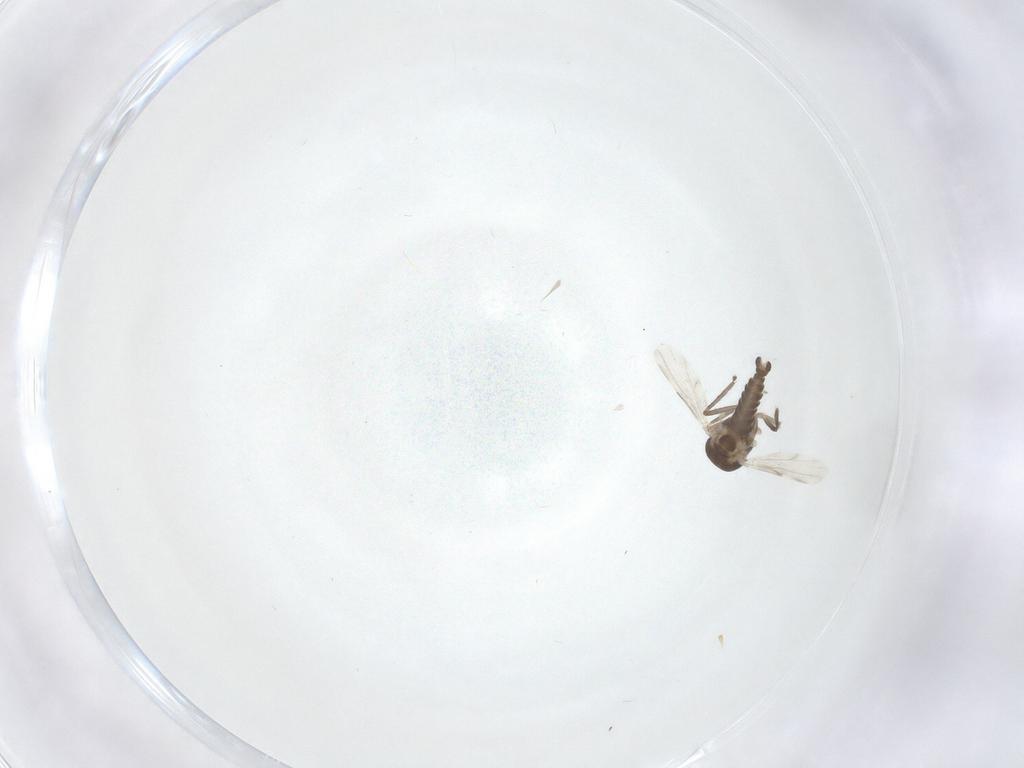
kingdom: Animalia
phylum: Arthropoda
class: Insecta
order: Diptera
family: Ceratopogonidae
